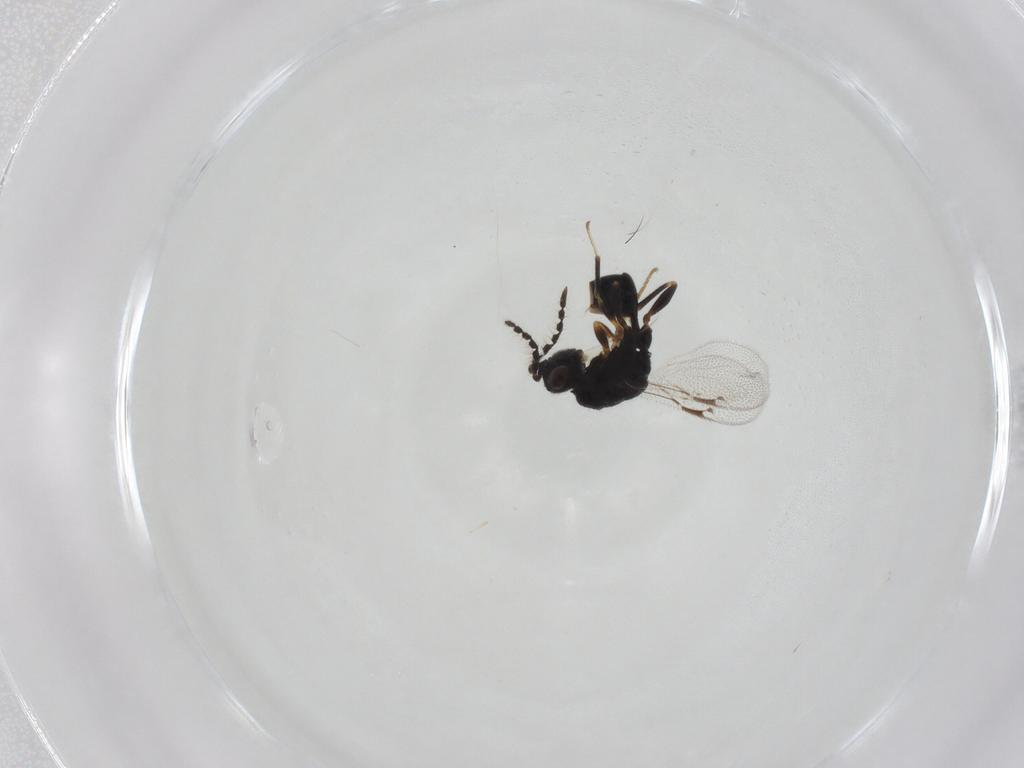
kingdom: Animalia
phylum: Arthropoda
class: Insecta
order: Hymenoptera
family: Eurytomidae
